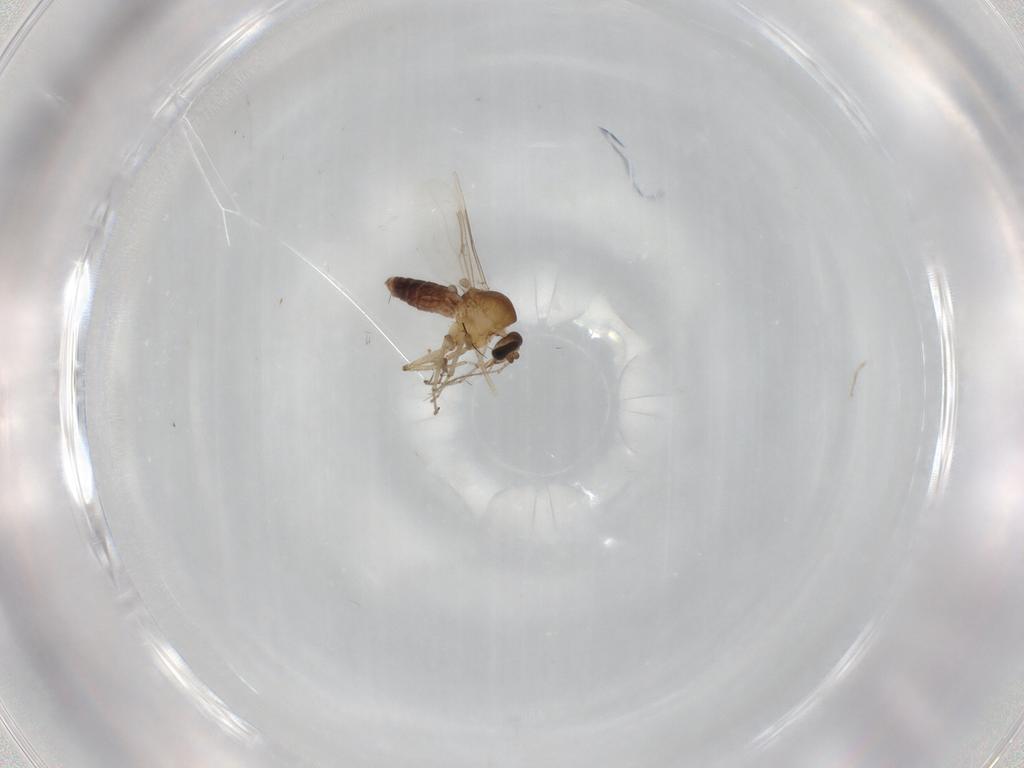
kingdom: Animalia
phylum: Arthropoda
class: Insecta
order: Diptera
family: Chironomidae
